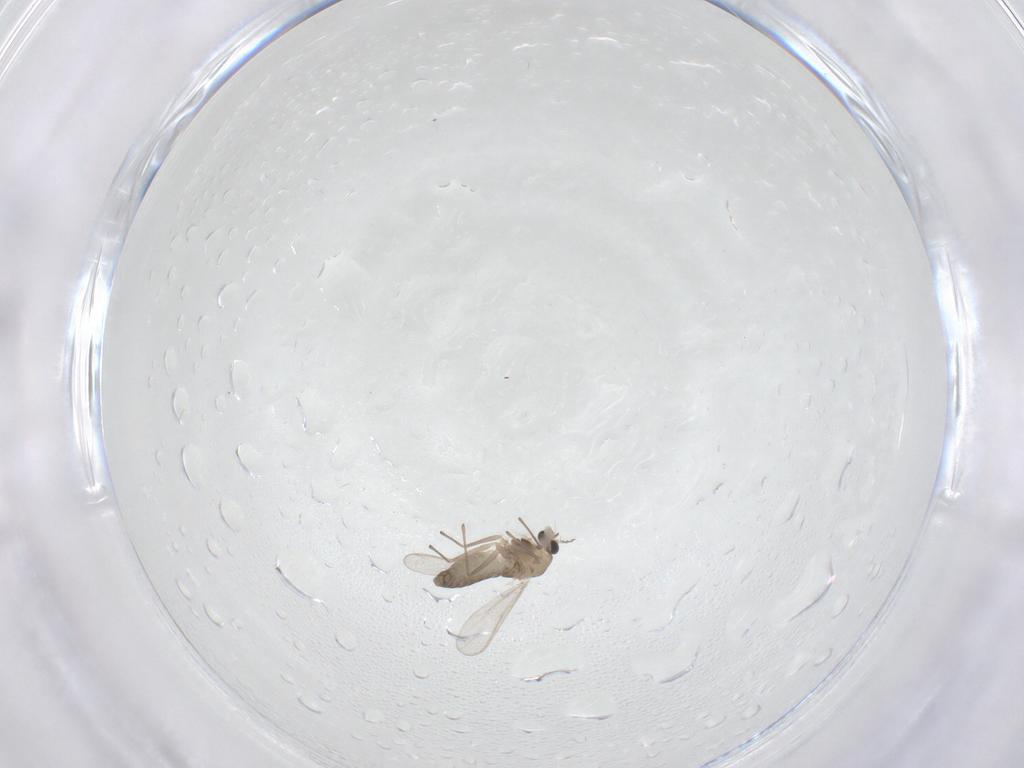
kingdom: Animalia
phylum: Arthropoda
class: Insecta
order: Diptera
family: Chironomidae
